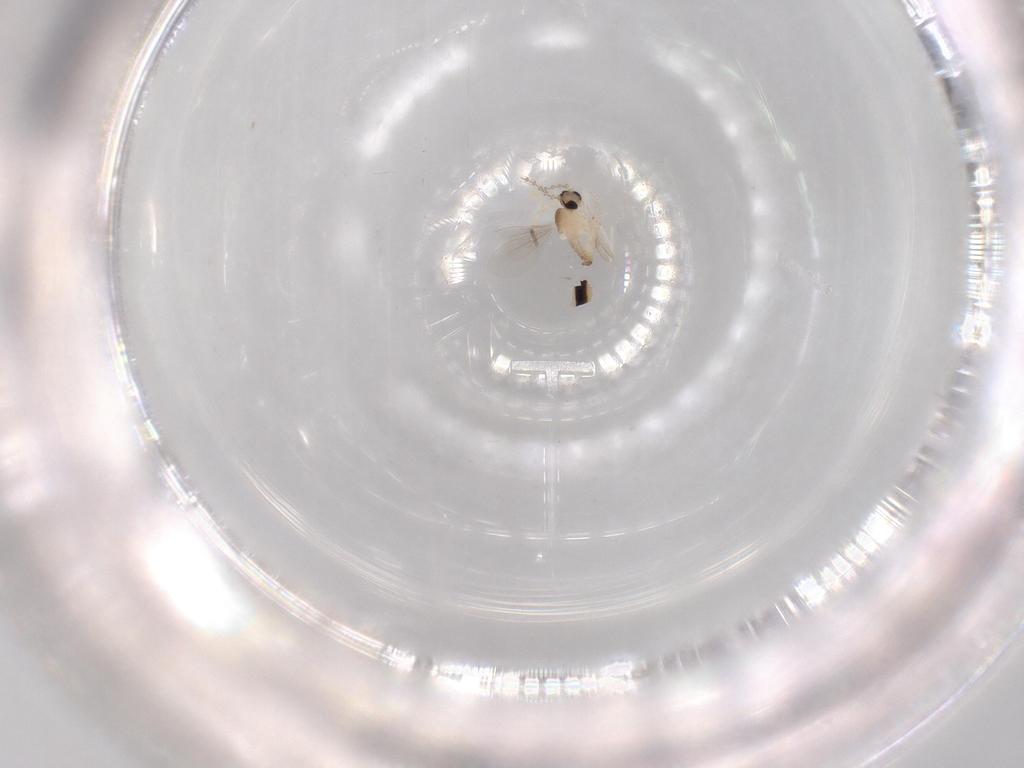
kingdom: Animalia
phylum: Arthropoda
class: Insecta
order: Diptera
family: Cecidomyiidae
